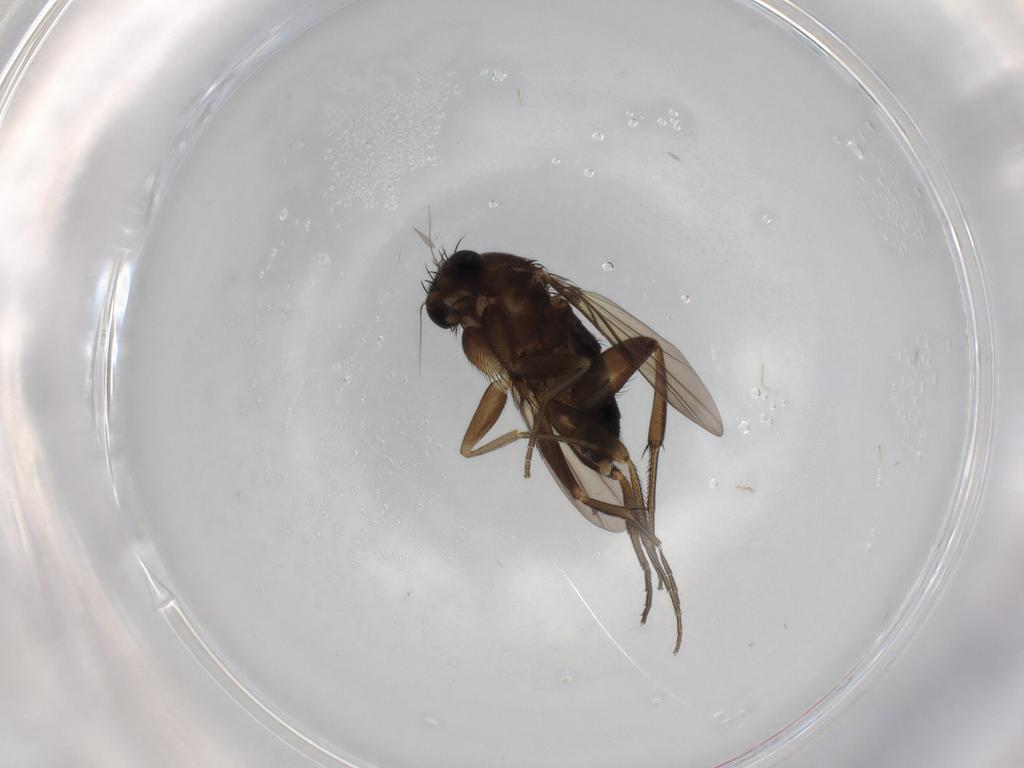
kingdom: Animalia
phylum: Arthropoda
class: Insecta
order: Diptera
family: Phoridae
